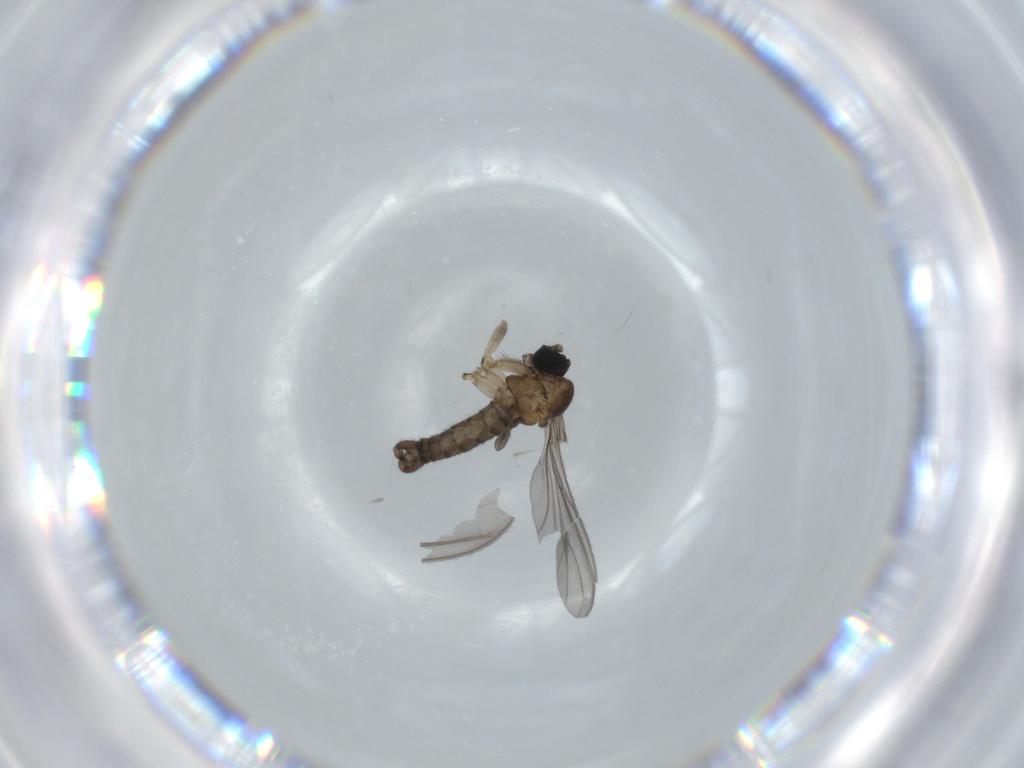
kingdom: Animalia
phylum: Arthropoda
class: Insecta
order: Diptera
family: Sciaridae
